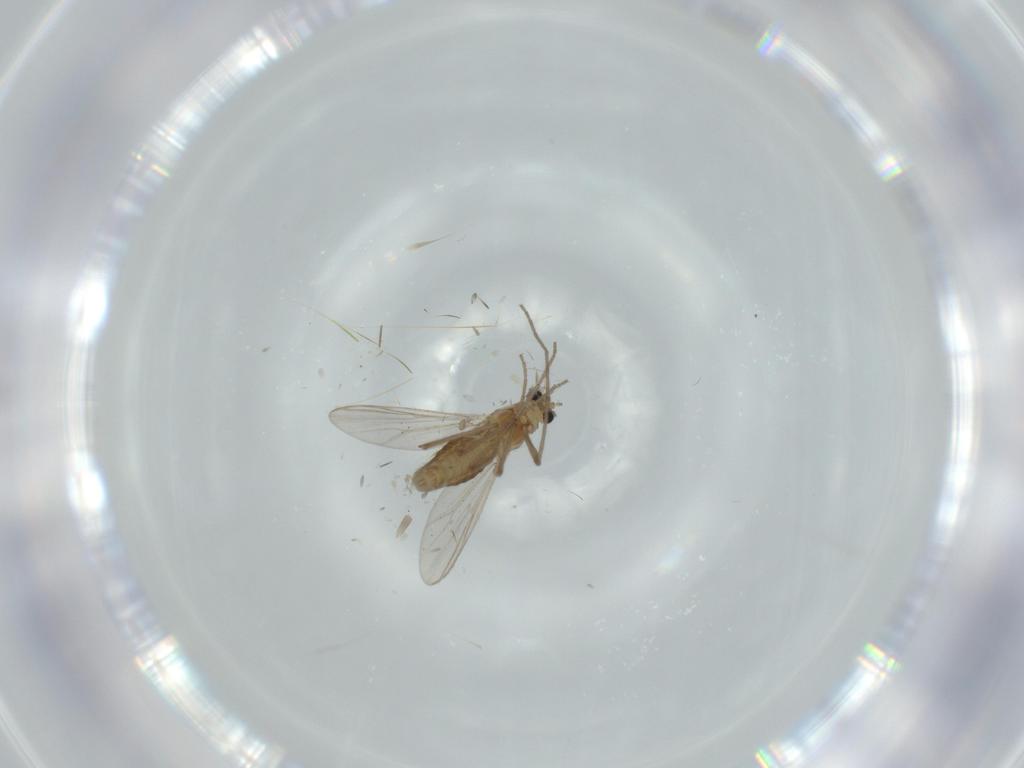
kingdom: Animalia
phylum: Arthropoda
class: Insecta
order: Diptera
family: Chironomidae
